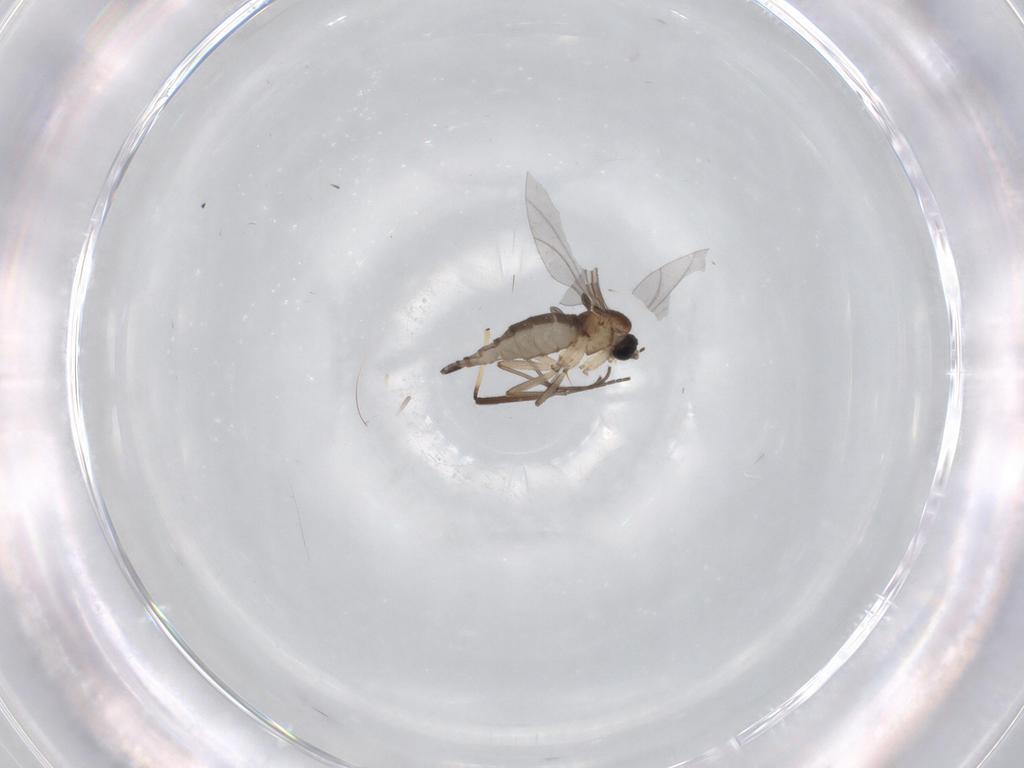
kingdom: Animalia
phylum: Arthropoda
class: Insecta
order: Diptera
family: Sciaridae
